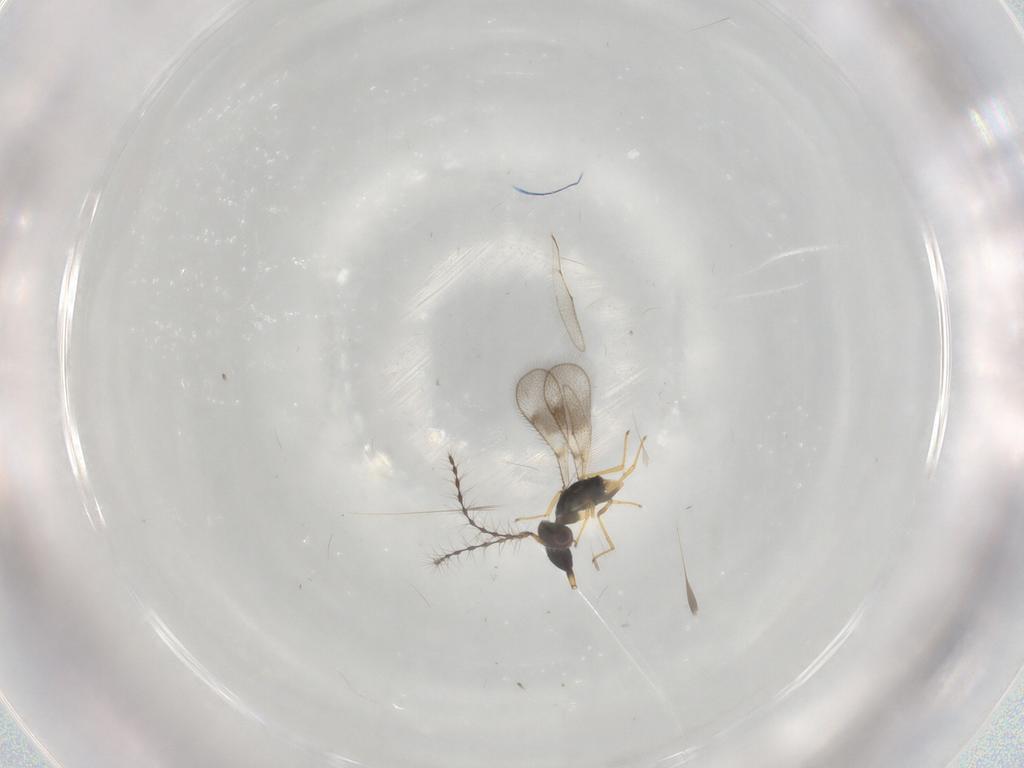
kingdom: Animalia
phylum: Arthropoda
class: Insecta
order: Hymenoptera
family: Diparidae
